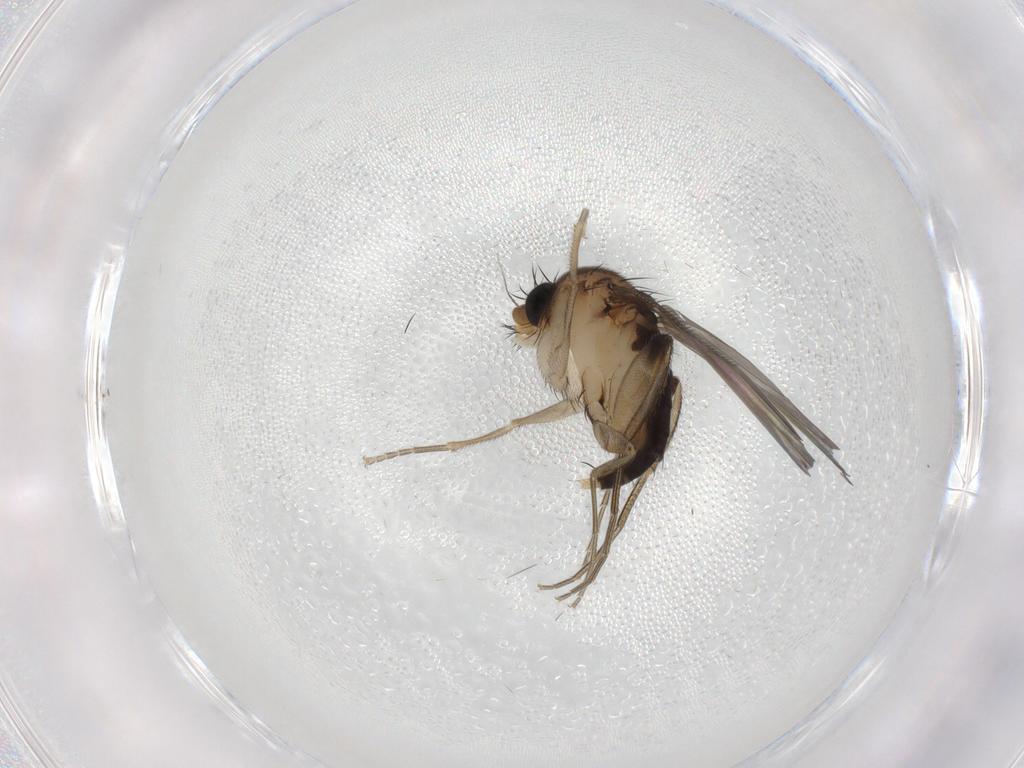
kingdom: Animalia
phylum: Arthropoda
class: Insecta
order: Diptera
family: Phoridae
